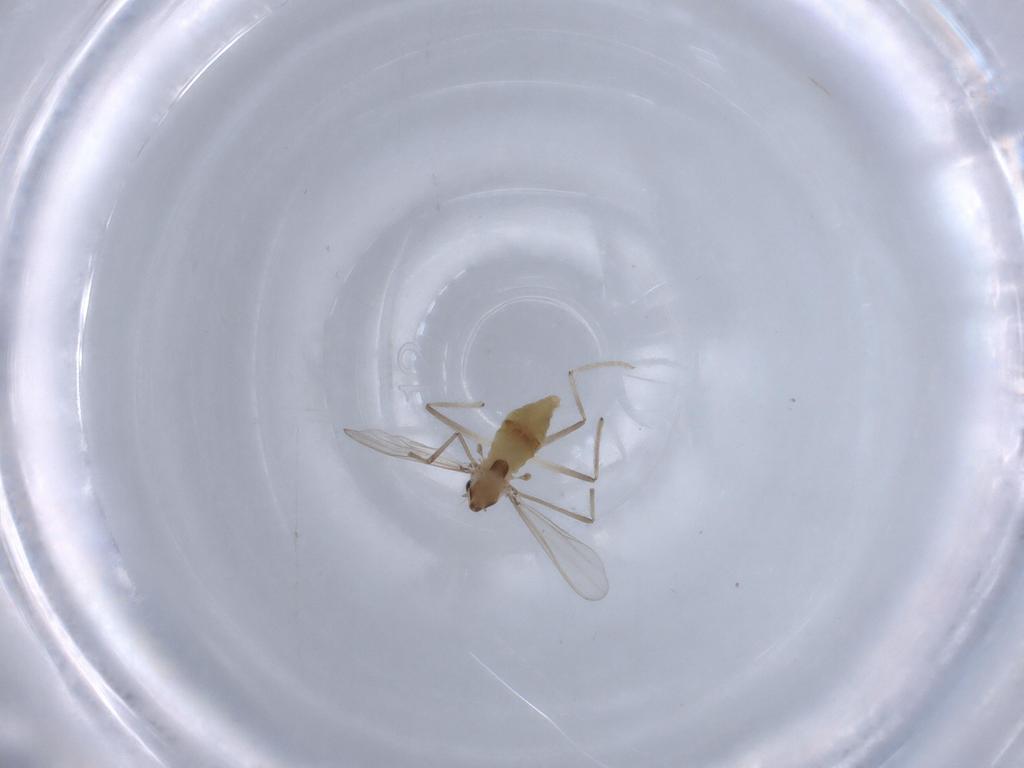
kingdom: Animalia
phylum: Arthropoda
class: Insecta
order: Diptera
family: Chironomidae
